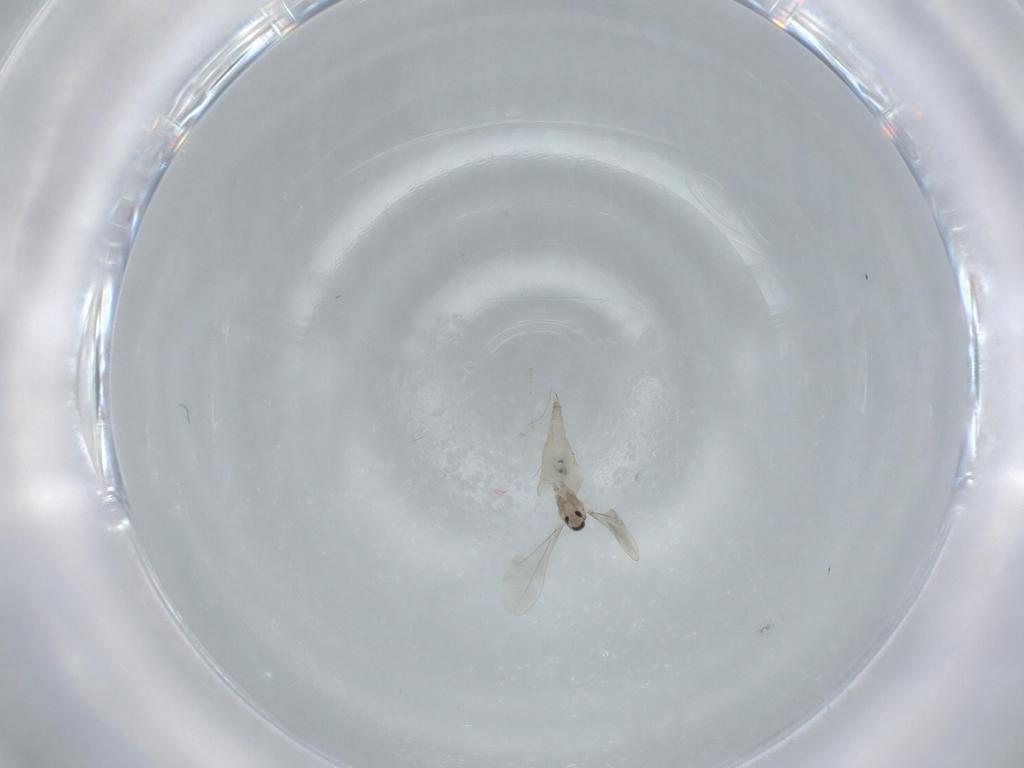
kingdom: Animalia
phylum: Arthropoda
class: Insecta
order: Diptera
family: Cecidomyiidae
